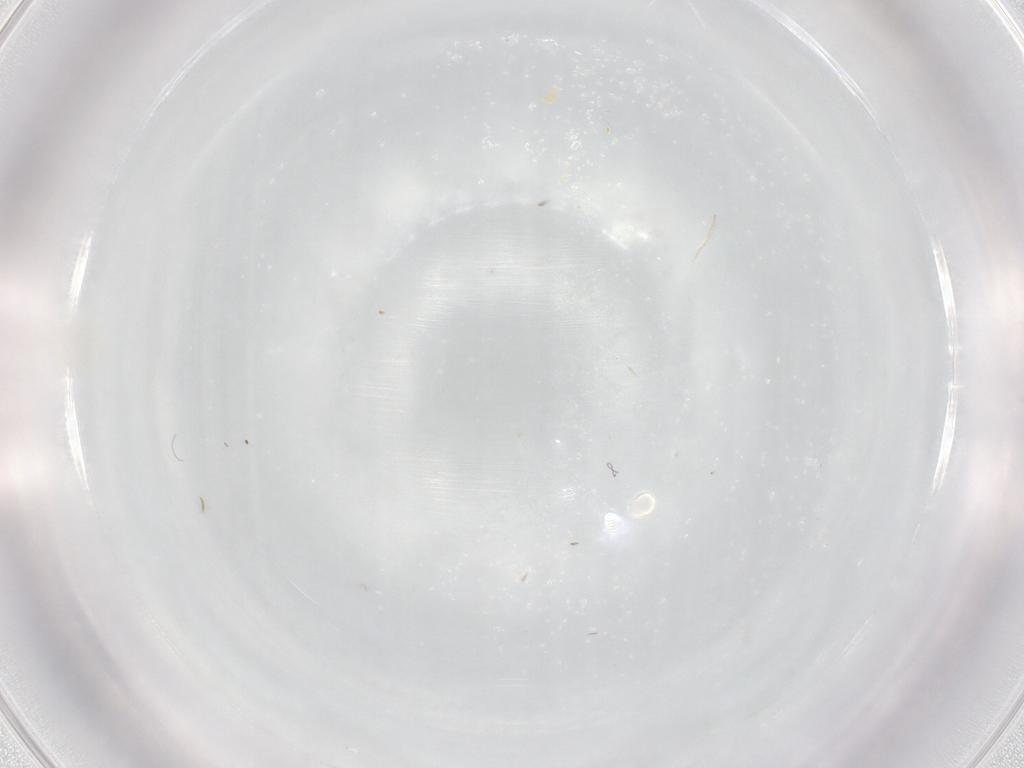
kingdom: Animalia
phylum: Arthropoda
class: Insecta
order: Diptera
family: Cecidomyiidae
